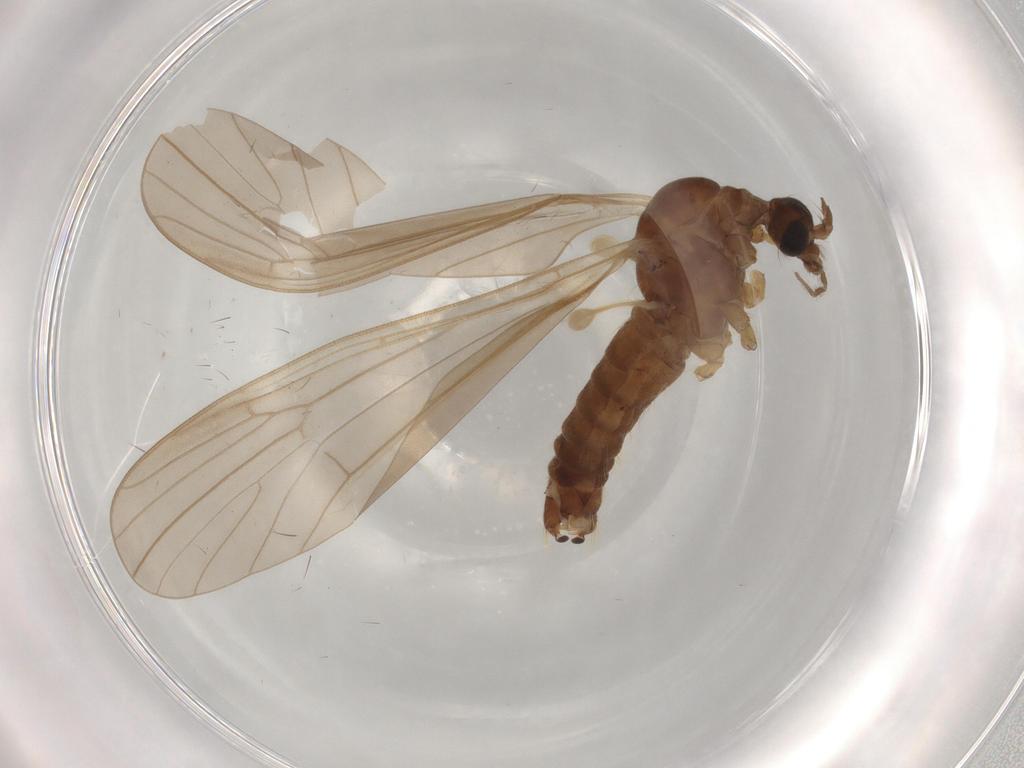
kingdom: Animalia
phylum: Arthropoda
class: Insecta
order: Diptera
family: Sphaeroceridae
